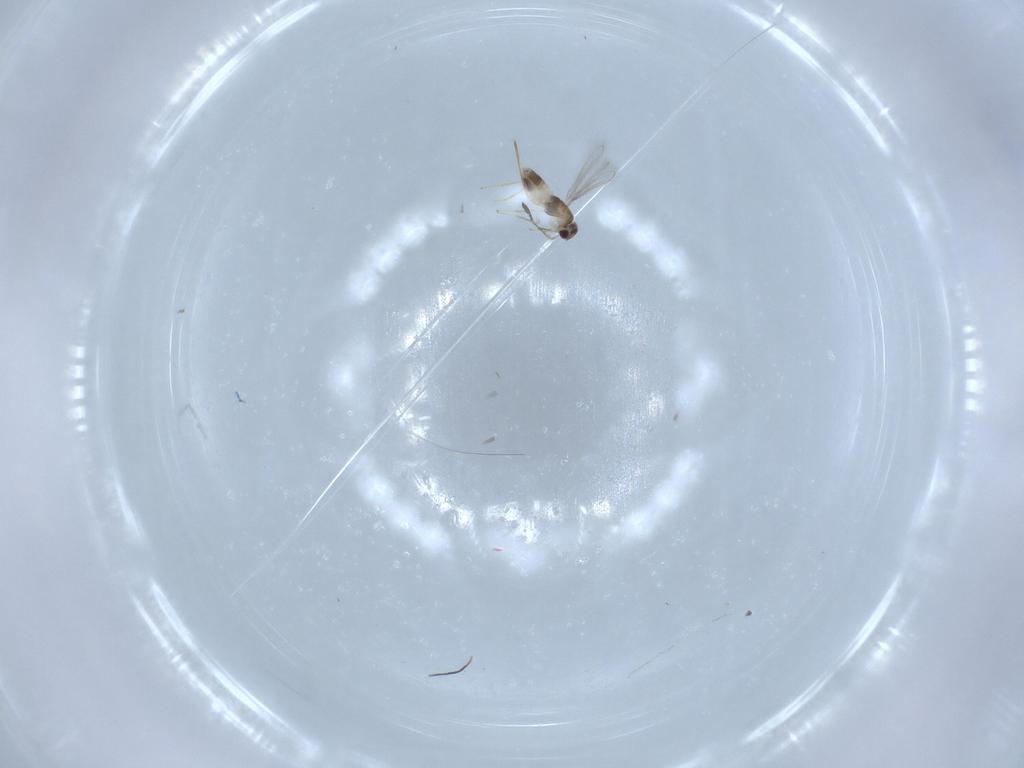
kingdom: Animalia
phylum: Arthropoda
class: Insecta
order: Hymenoptera
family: Mymaridae
